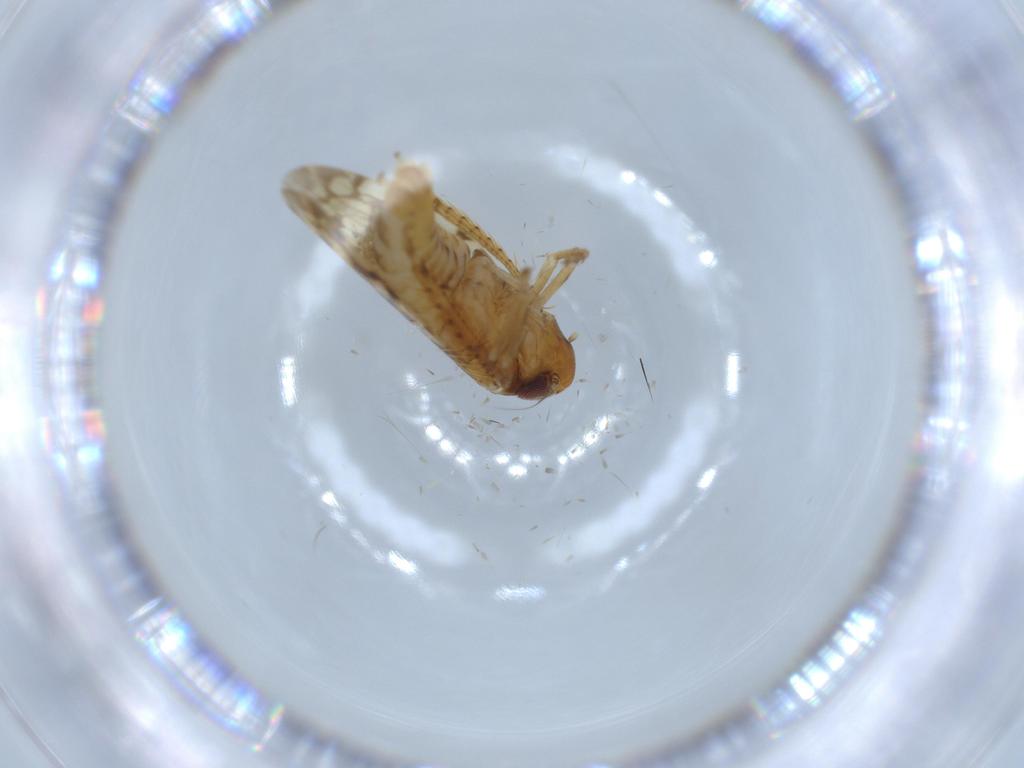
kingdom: Animalia
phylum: Arthropoda
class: Insecta
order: Hemiptera
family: Cicadellidae
